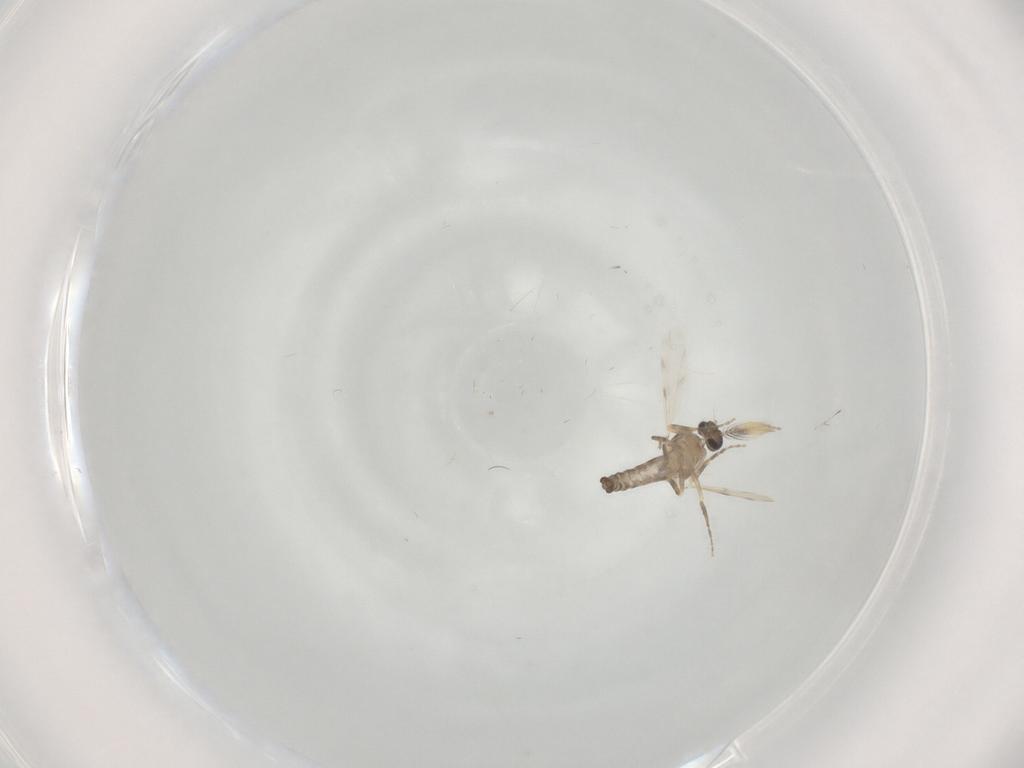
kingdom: Animalia
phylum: Arthropoda
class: Insecta
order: Diptera
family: Ceratopogonidae
